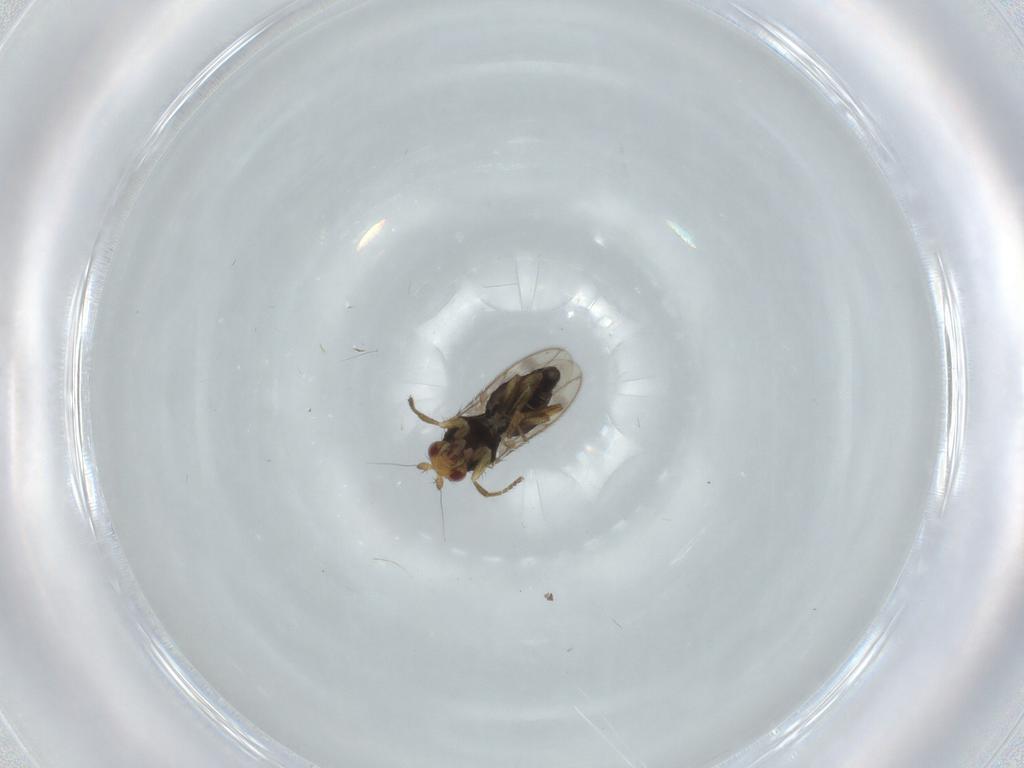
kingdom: Animalia
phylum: Arthropoda
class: Insecta
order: Diptera
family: Sphaeroceridae
